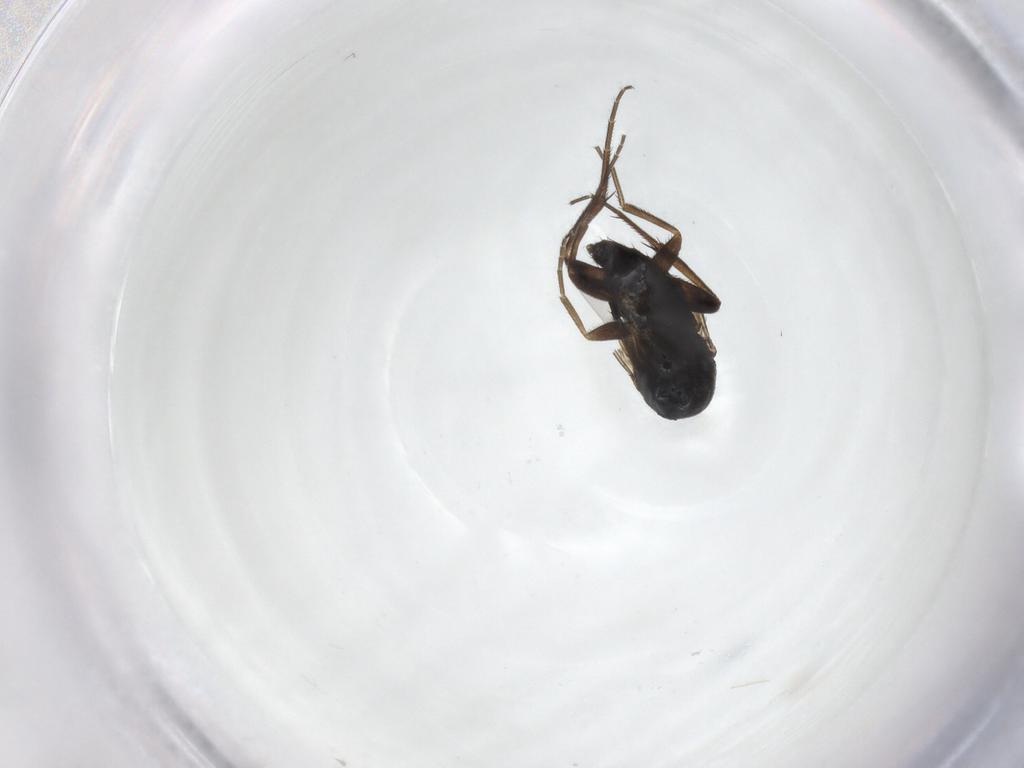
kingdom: Animalia
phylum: Arthropoda
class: Insecta
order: Diptera
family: Phoridae
